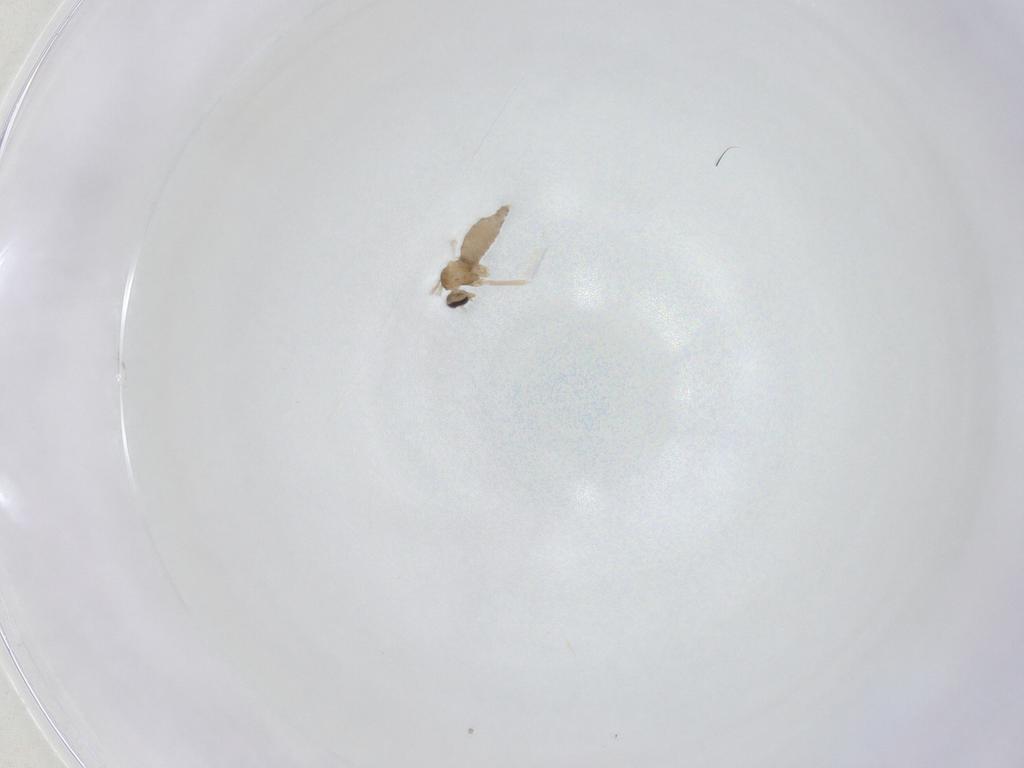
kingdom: Animalia
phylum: Arthropoda
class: Insecta
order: Diptera
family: Cecidomyiidae
